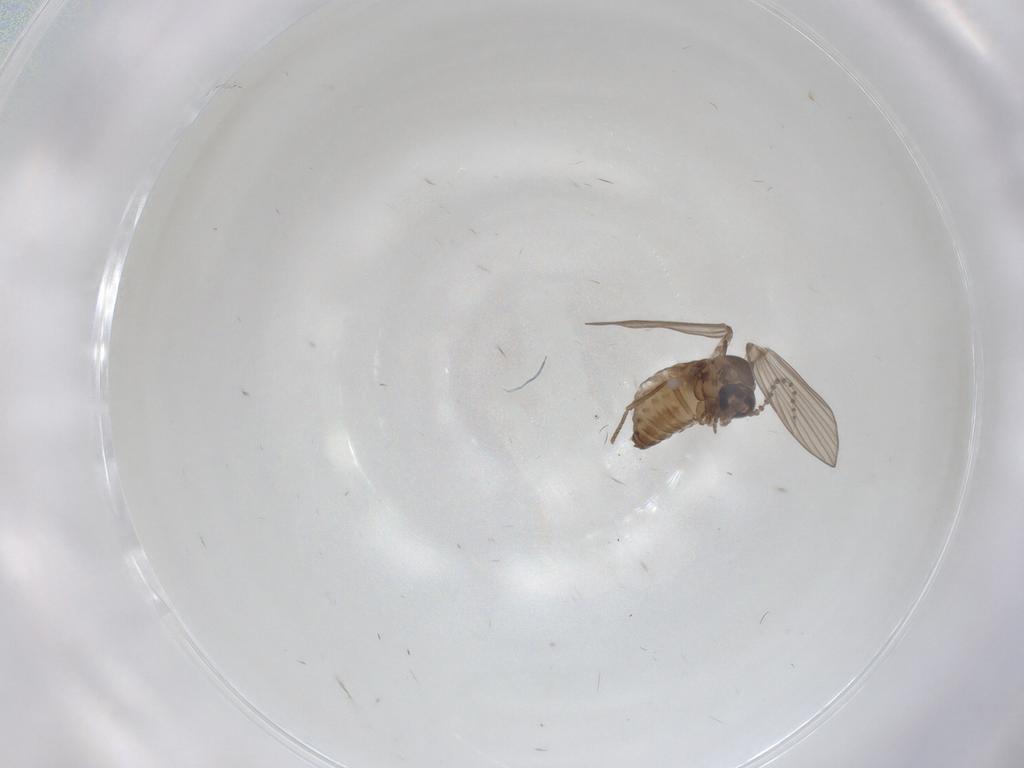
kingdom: Animalia
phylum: Arthropoda
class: Insecta
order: Diptera
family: Psychodidae
